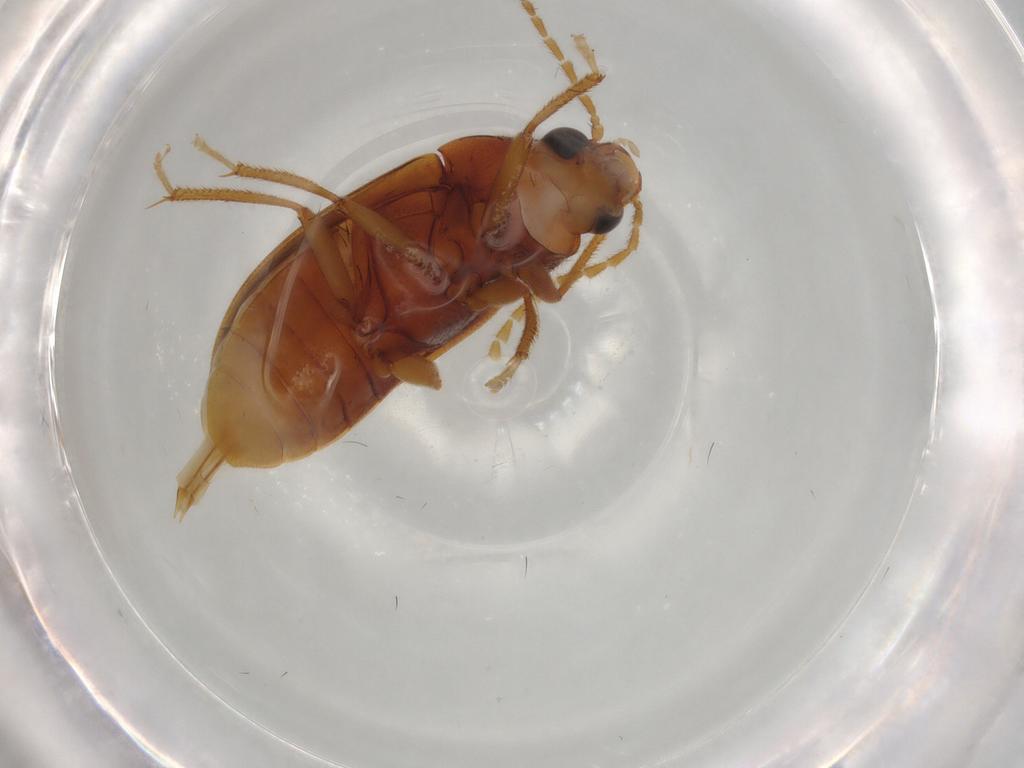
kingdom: Animalia
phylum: Arthropoda
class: Insecta
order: Coleoptera
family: Ptilodactylidae
